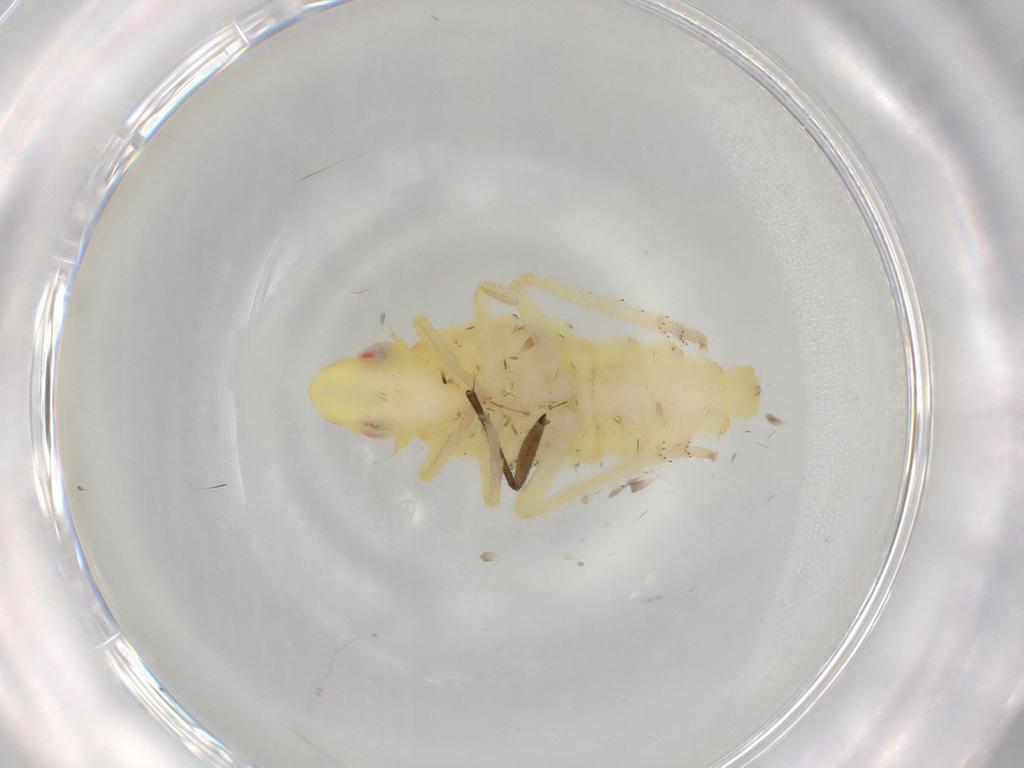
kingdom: Animalia
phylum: Arthropoda
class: Insecta
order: Hemiptera
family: Tropiduchidae
